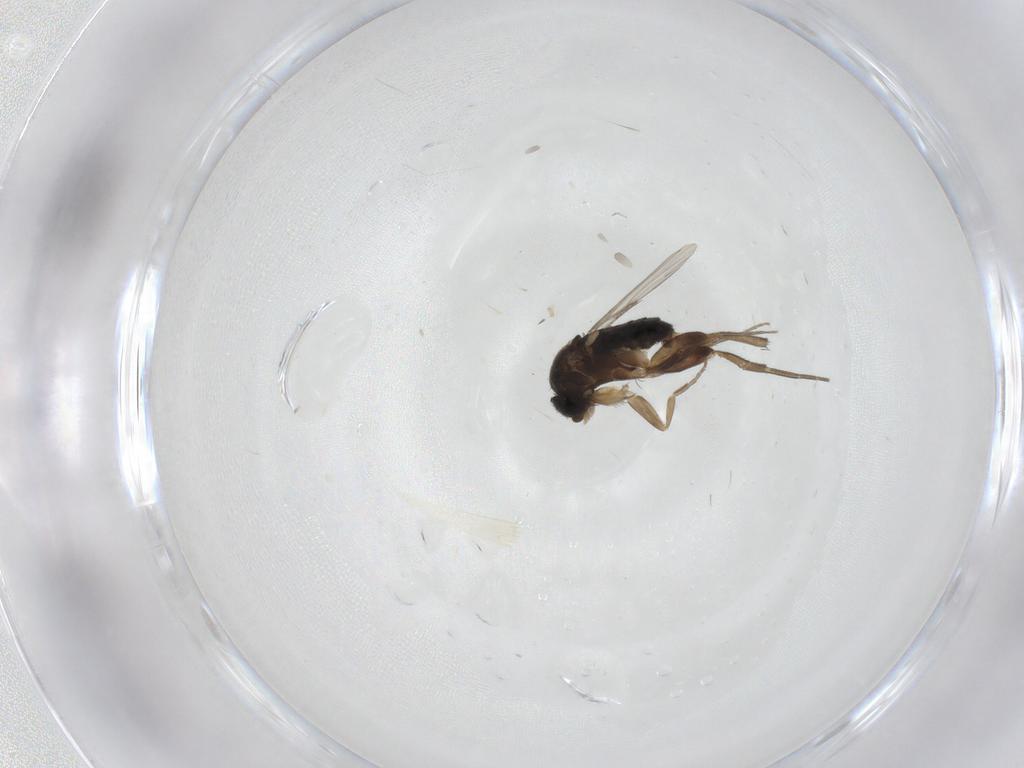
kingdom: Animalia
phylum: Arthropoda
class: Insecta
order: Diptera
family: Phoridae
